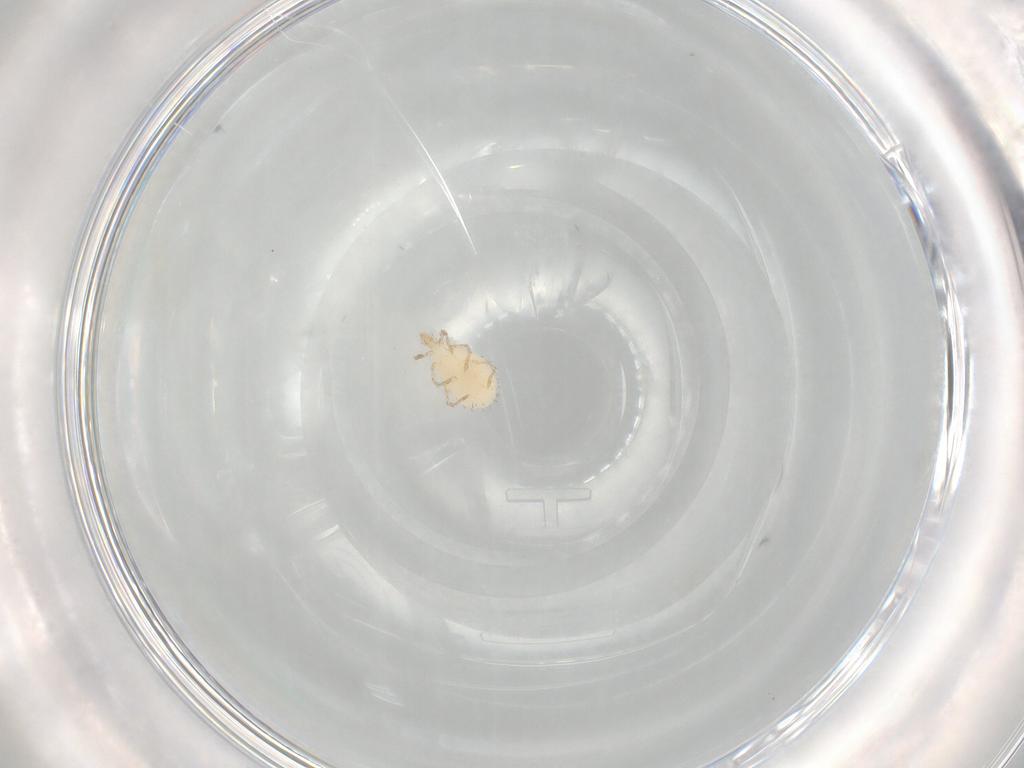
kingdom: Animalia
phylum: Arthropoda
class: Arachnida
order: Trombidiformes
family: Erythraeidae
